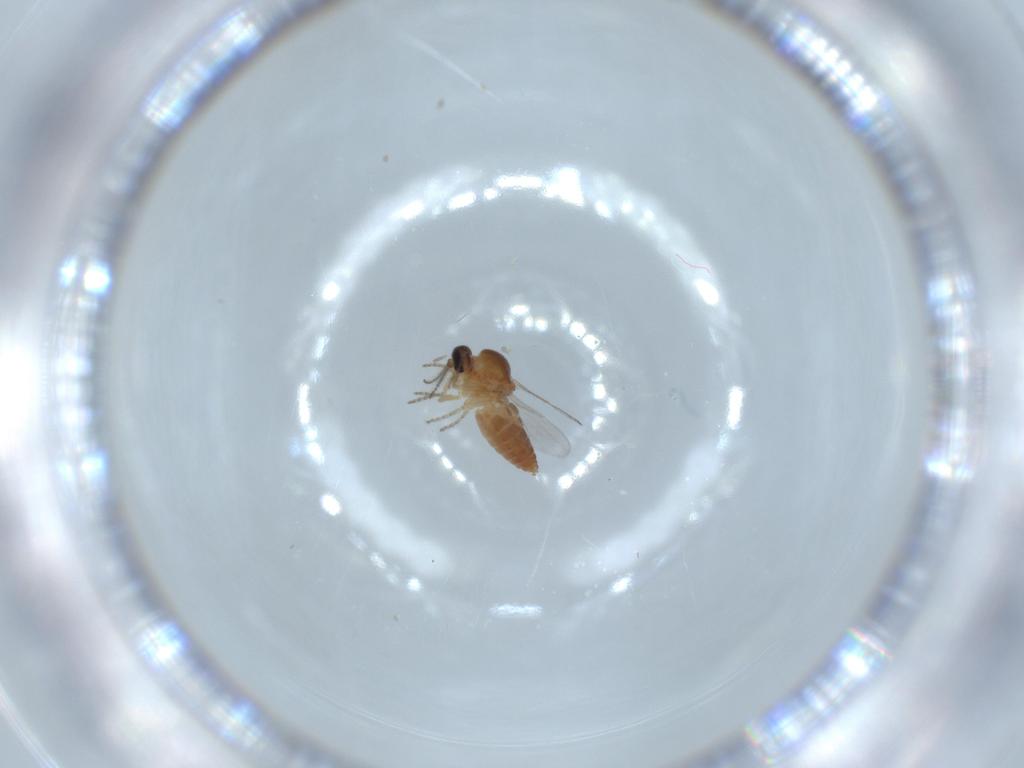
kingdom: Animalia
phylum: Arthropoda
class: Insecta
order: Diptera
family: Ceratopogonidae
